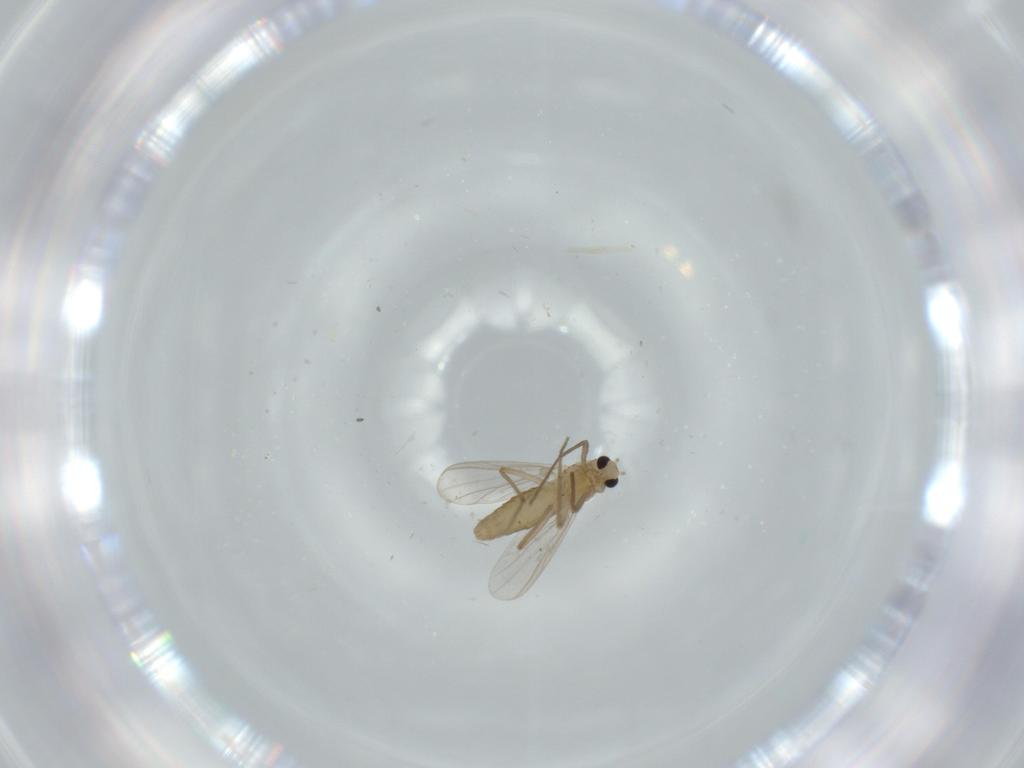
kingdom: Animalia
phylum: Arthropoda
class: Insecta
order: Diptera
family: Chironomidae
